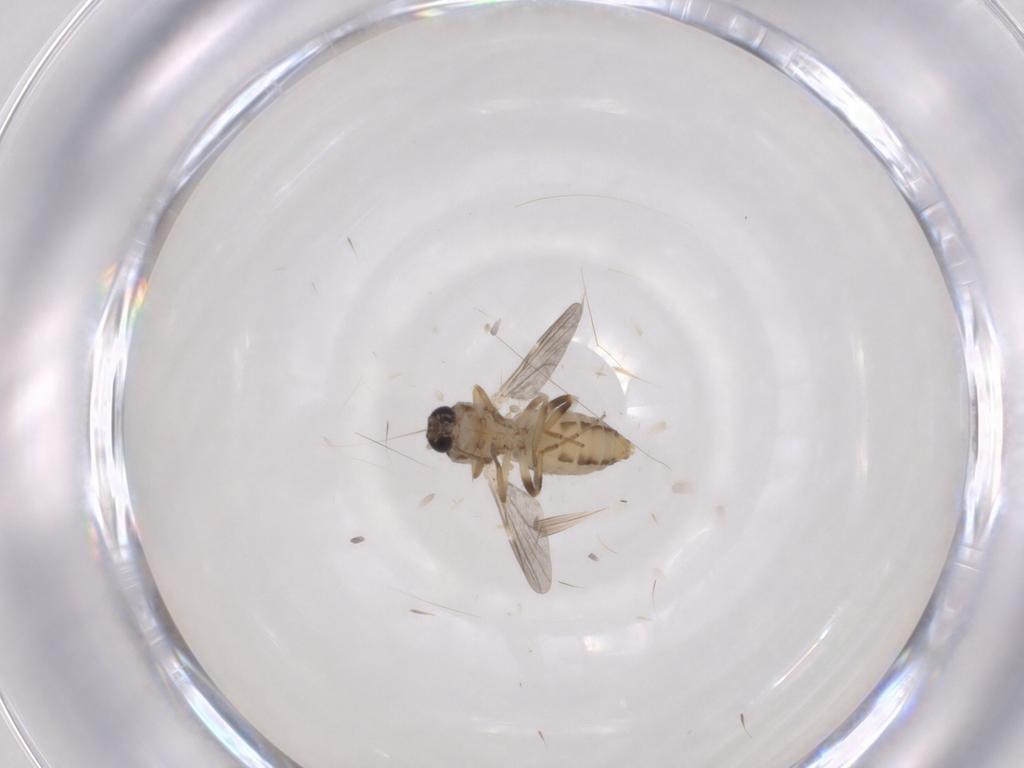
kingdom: Animalia
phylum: Arthropoda
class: Insecta
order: Diptera
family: Ceratopogonidae
